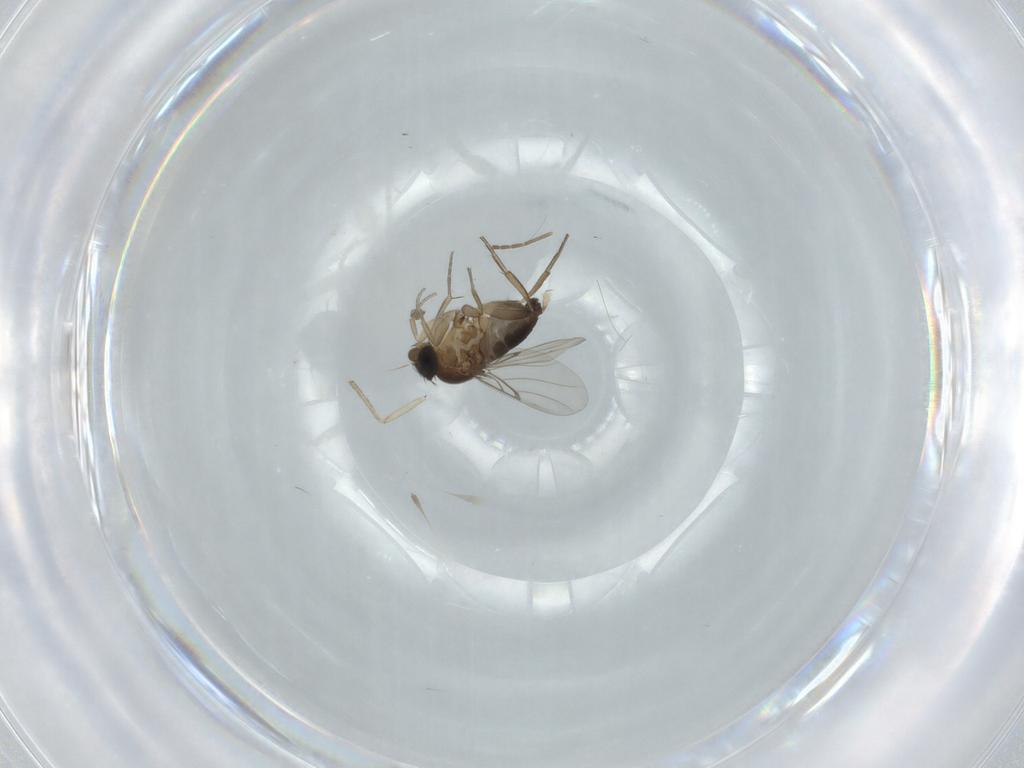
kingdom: Animalia
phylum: Arthropoda
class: Insecta
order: Diptera
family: Phoridae
